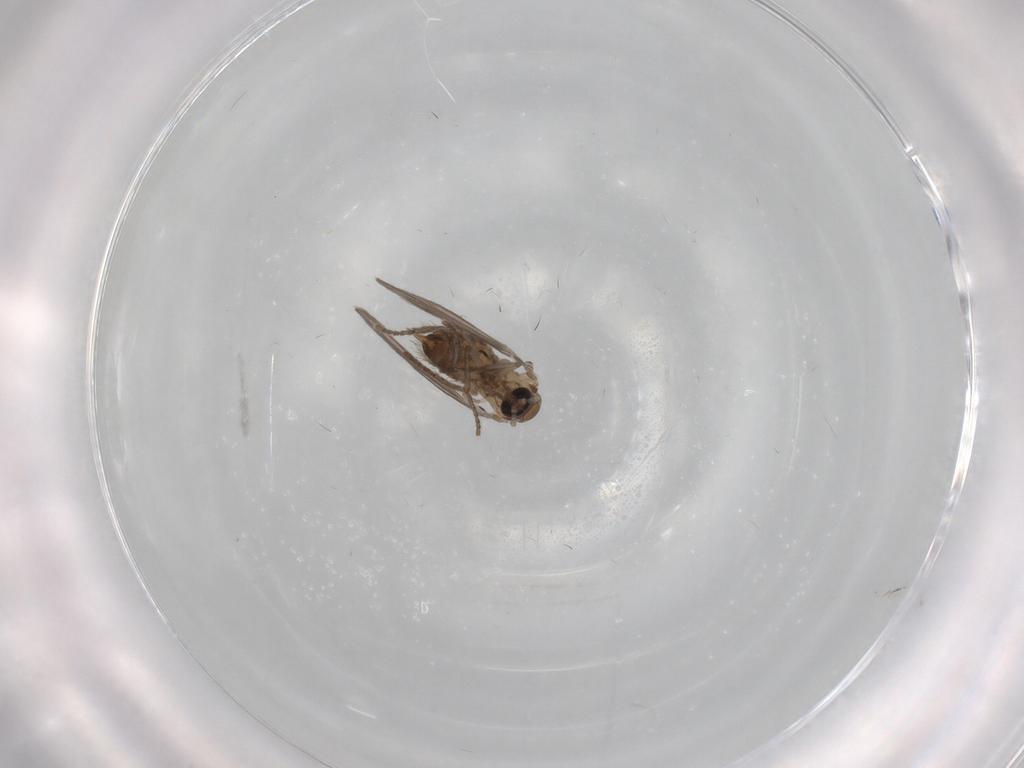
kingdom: Animalia
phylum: Arthropoda
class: Insecta
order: Diptera
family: Psychodidae
